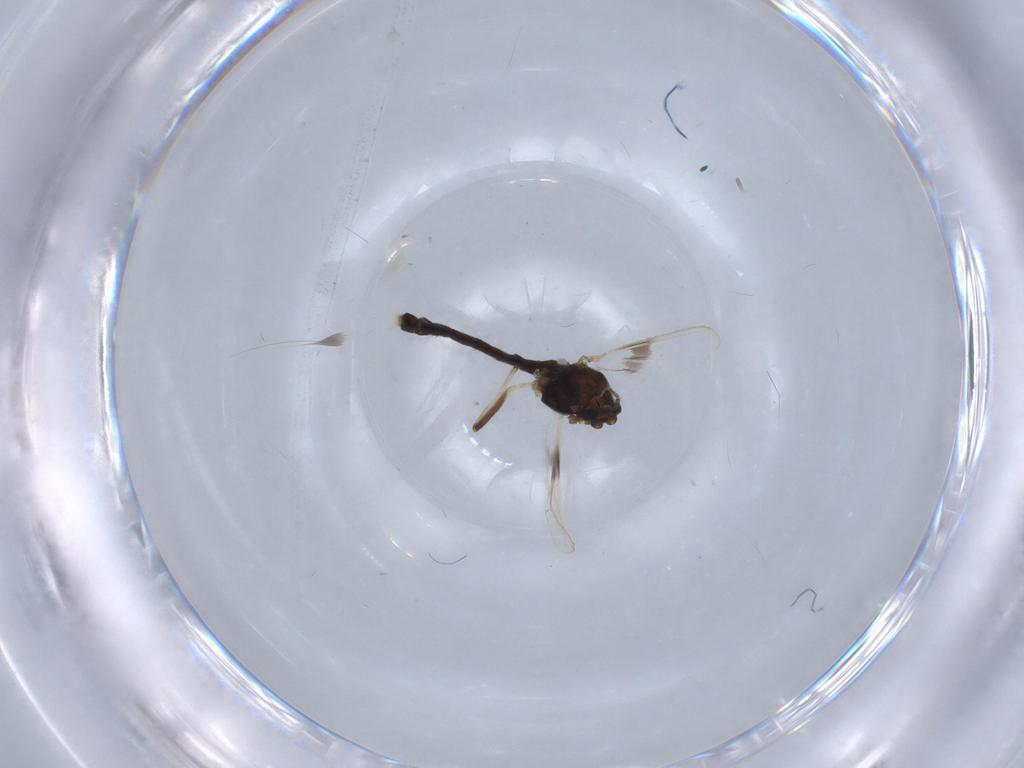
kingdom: Animalia
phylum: Arthropoda
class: Insecta
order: Diptera
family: Chironomidae
